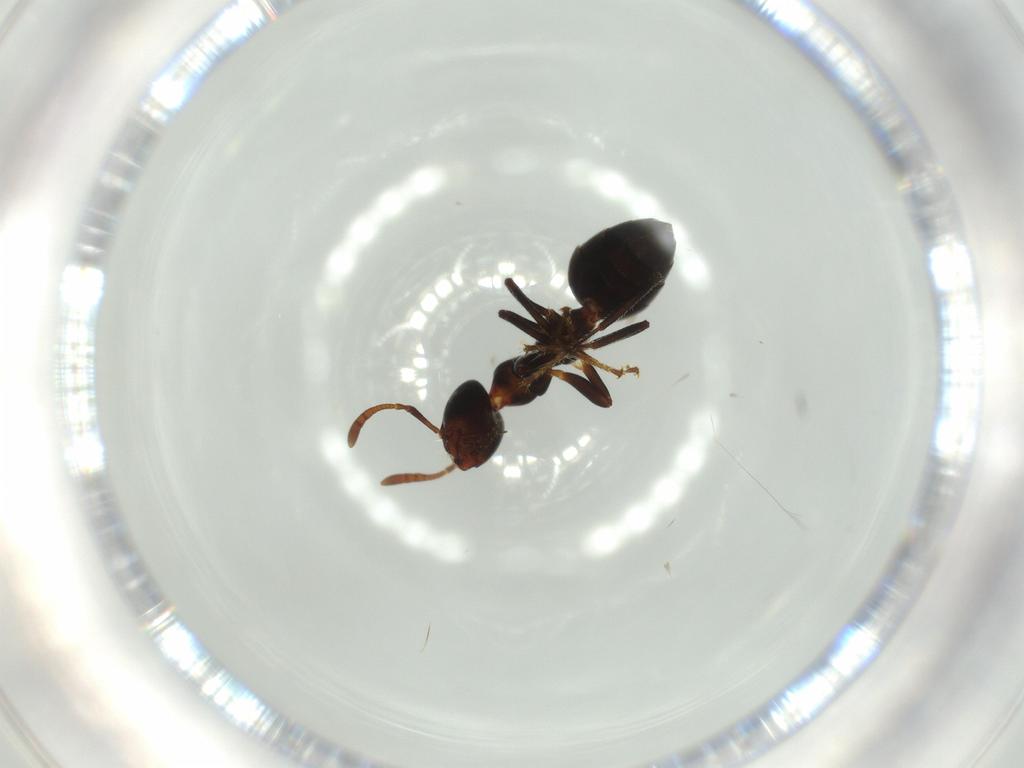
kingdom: Animalia
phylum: Arthropoda
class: Insecta
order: Hymenoptera
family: Formicidae
